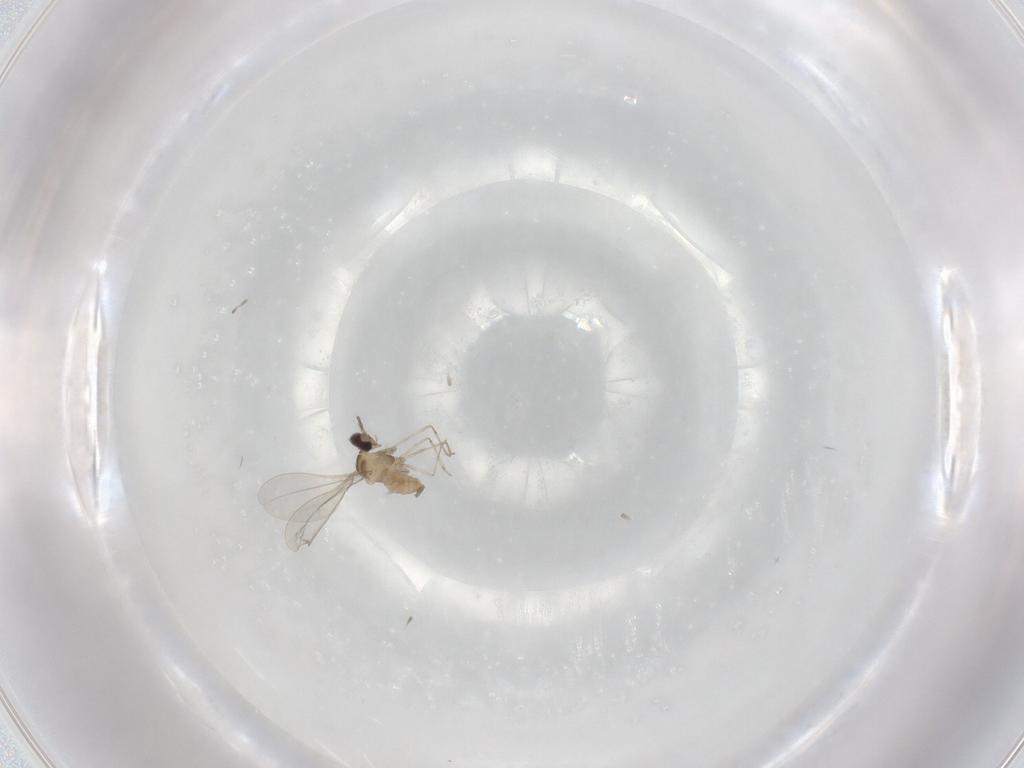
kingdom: Animalia
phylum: Arthropoda
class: Insecta
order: Diptera
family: Cecidomyiidae
